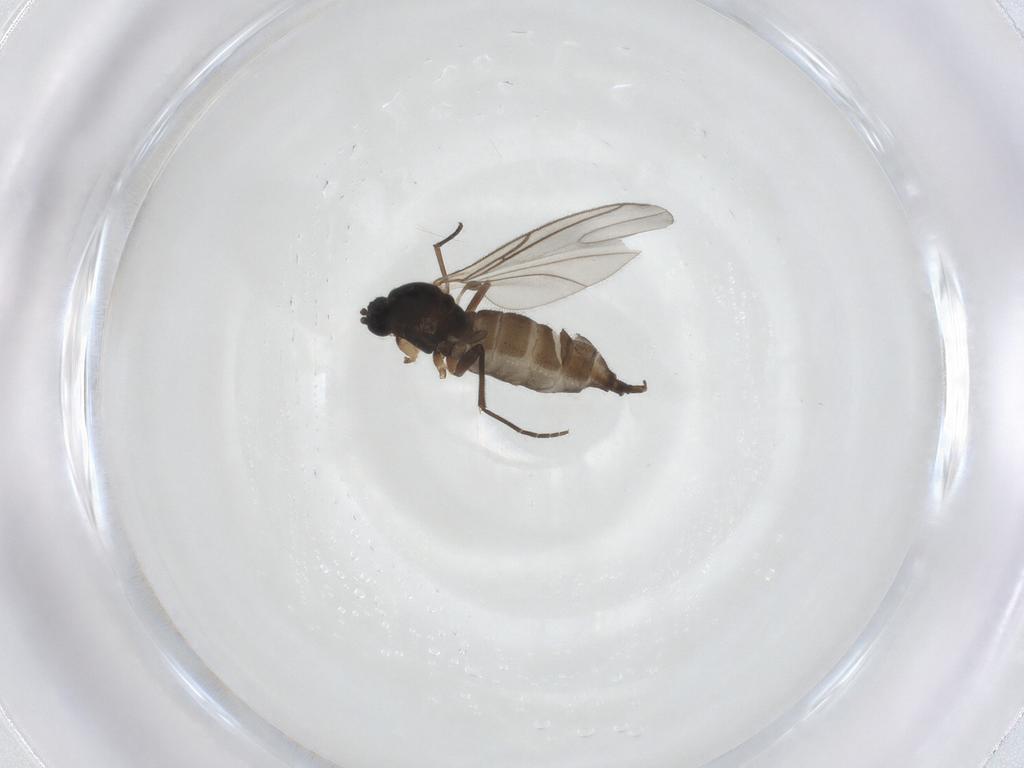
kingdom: Animalia
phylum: Arthropoda
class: Insecta
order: Diptera
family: Sciaridae
